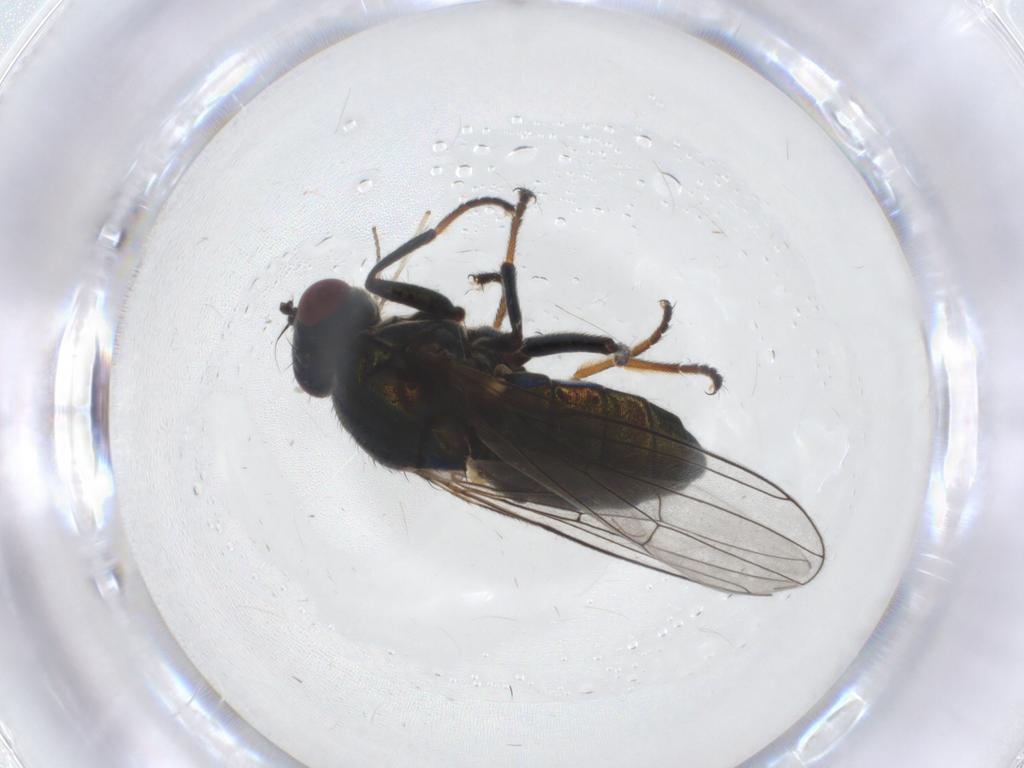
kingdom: Animalia
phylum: Arthropoda
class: Insecta
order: Diptera
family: Ephydridae
